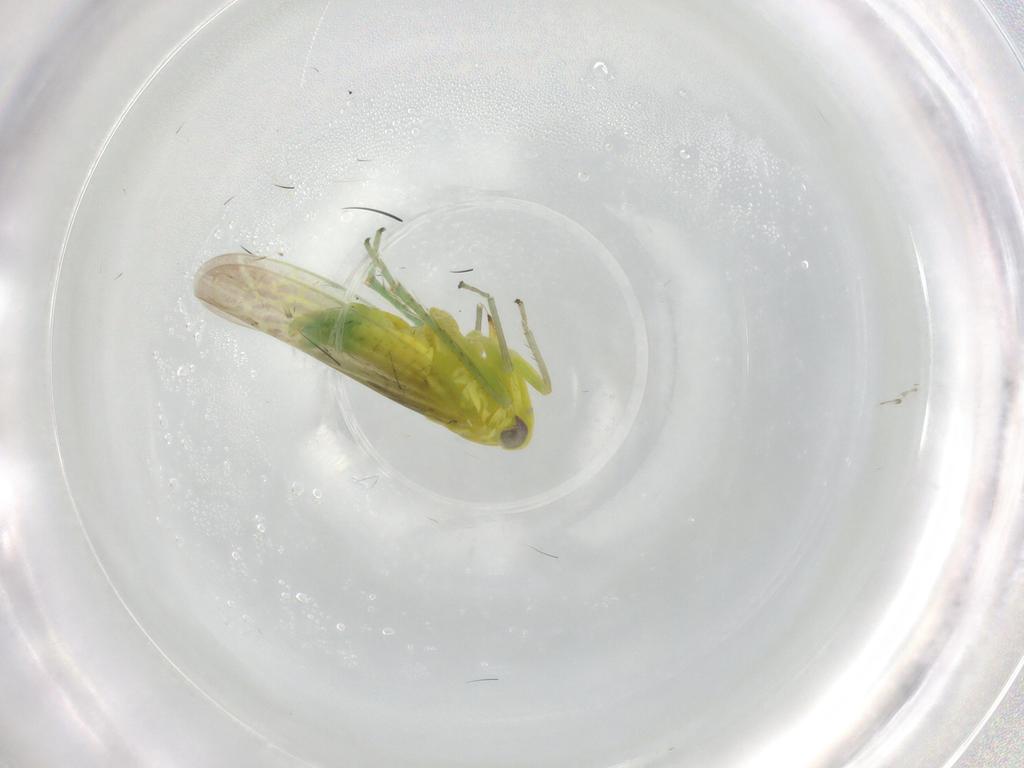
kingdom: Animalia
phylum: Arthropoda
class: Insecta
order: Hemiptera
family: Cicadellidae
